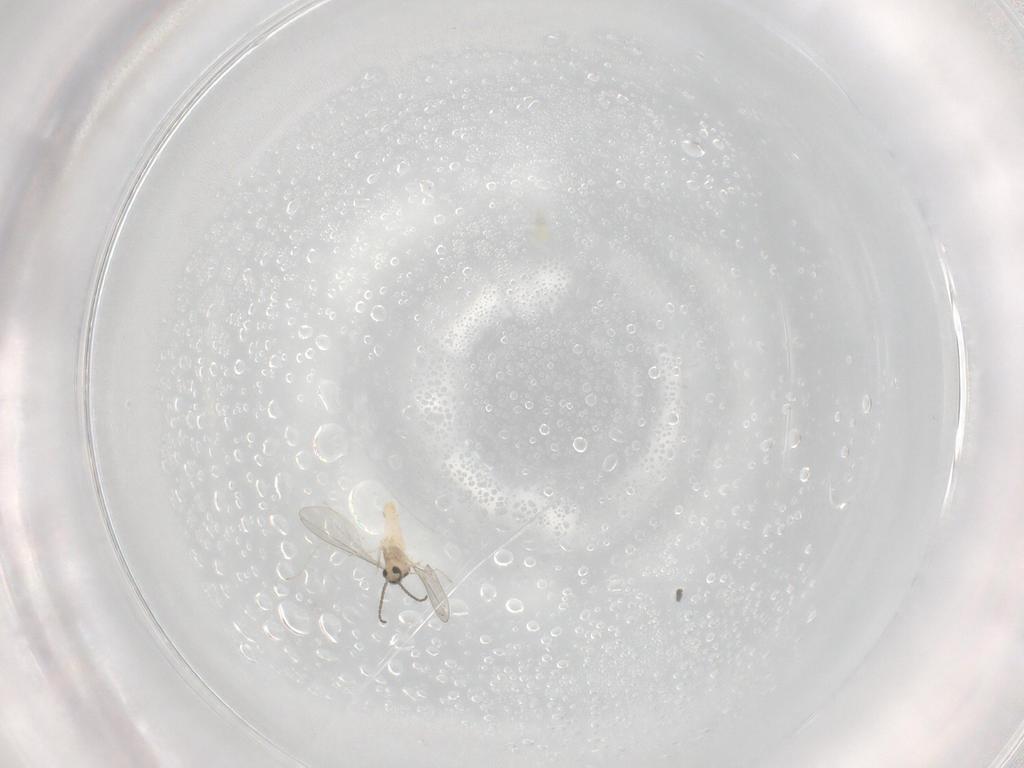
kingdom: Animalia
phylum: Arthropoda
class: Insecta
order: Diptera
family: Cecidomyiidae
